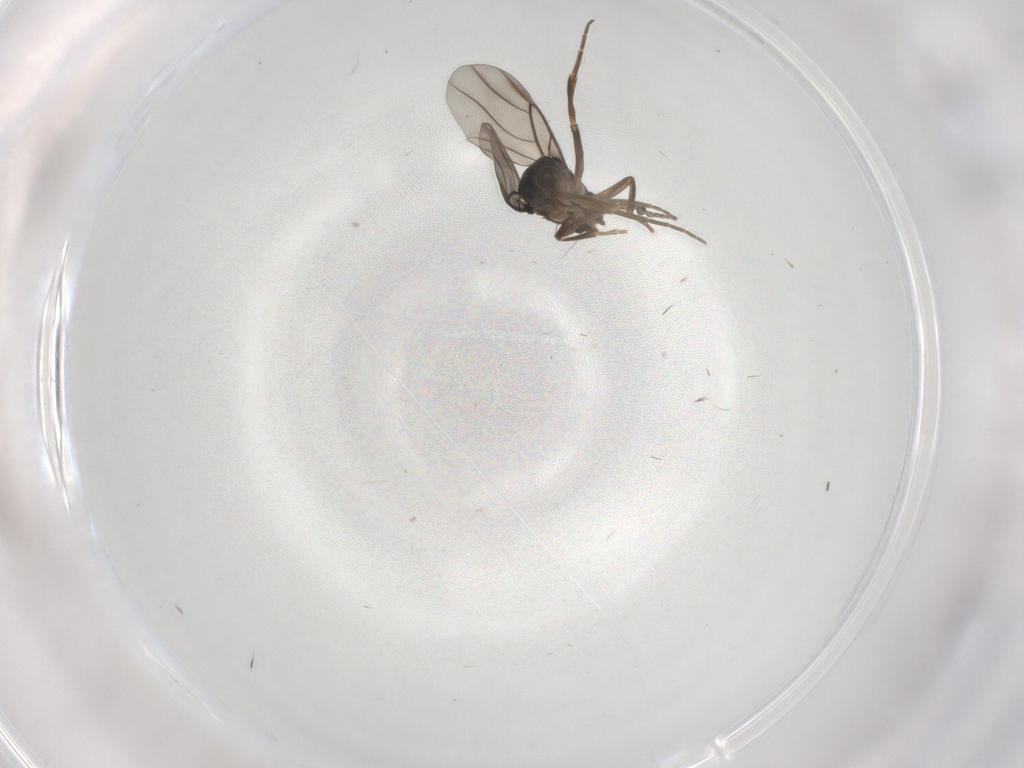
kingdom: Animalia
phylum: Arthropoda
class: Insecta
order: Diptera
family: Phoridae
